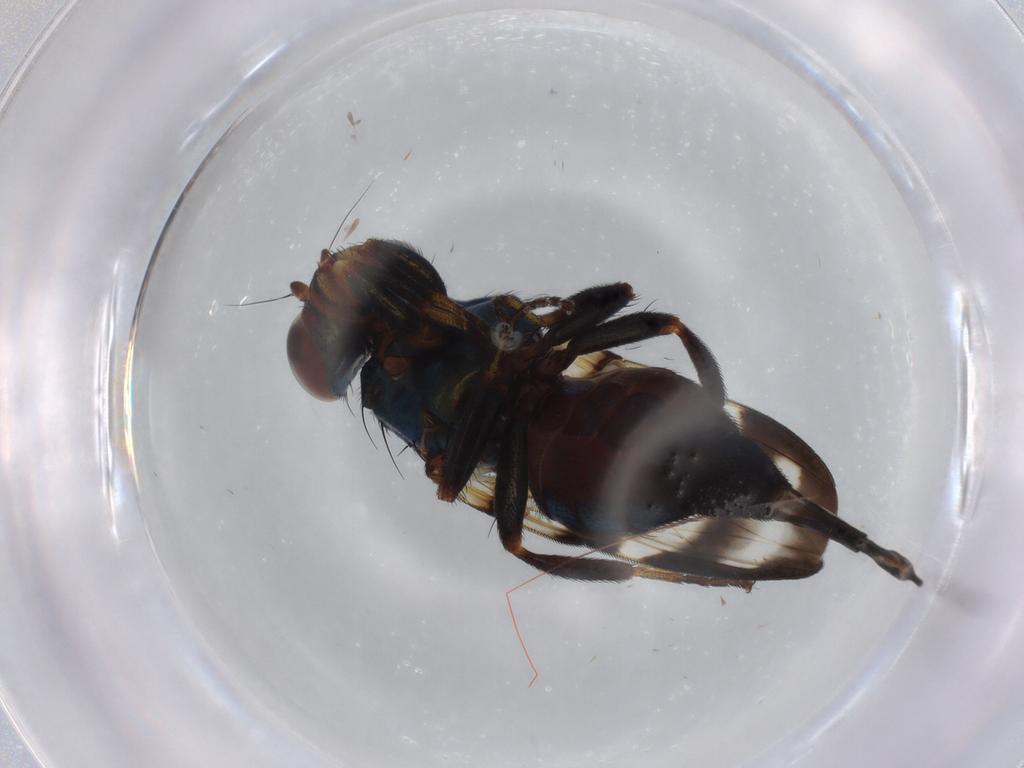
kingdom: Animalia
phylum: Arthropoda
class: Insecta
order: Diptera
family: Ulidiidae
